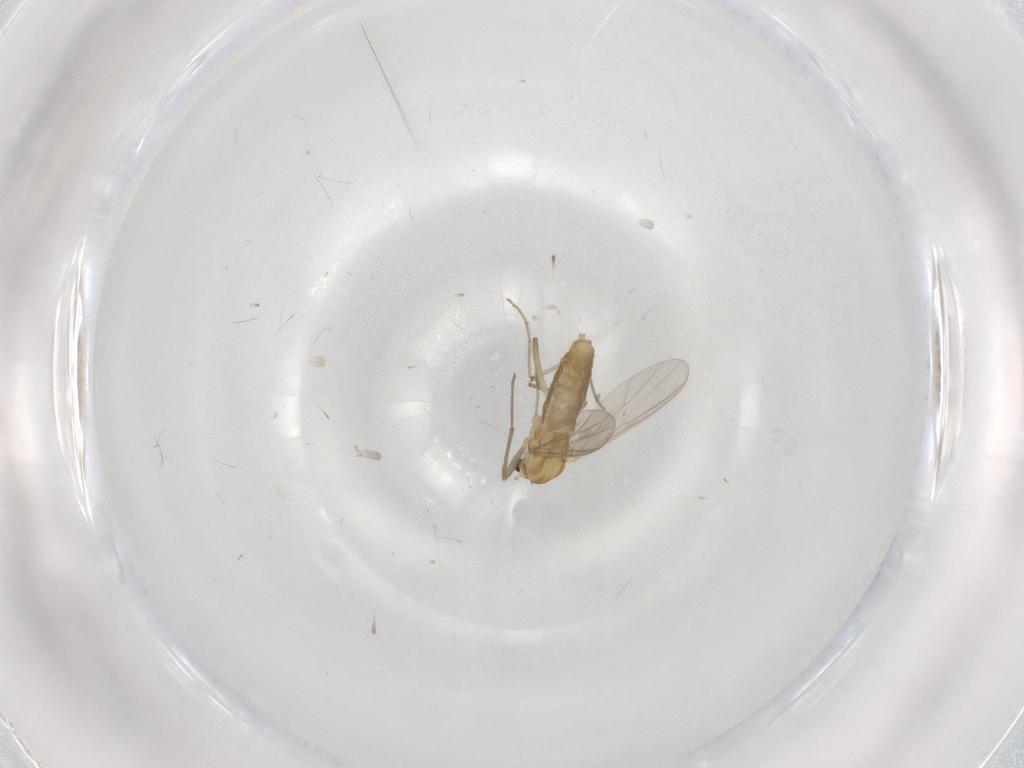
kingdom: Animalia
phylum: Arthropoda
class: Insecta
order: Diptera
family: Chironomidae
